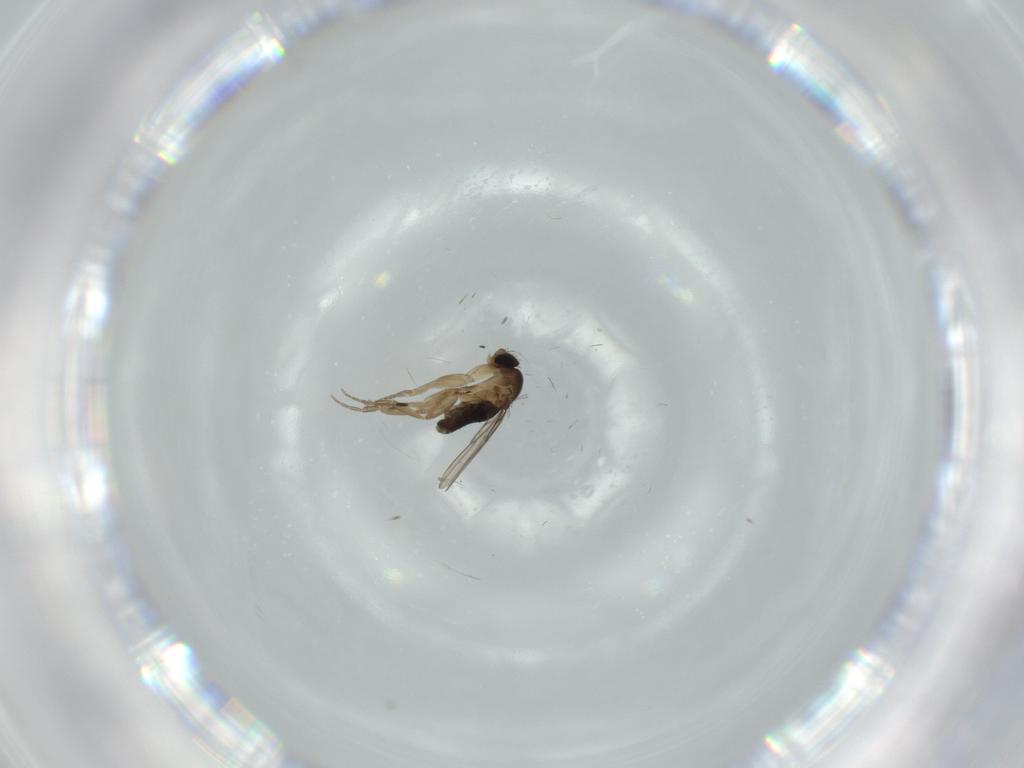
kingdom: Animalia
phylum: Arthropoda
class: Insecta
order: Diptera
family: Phoridae
